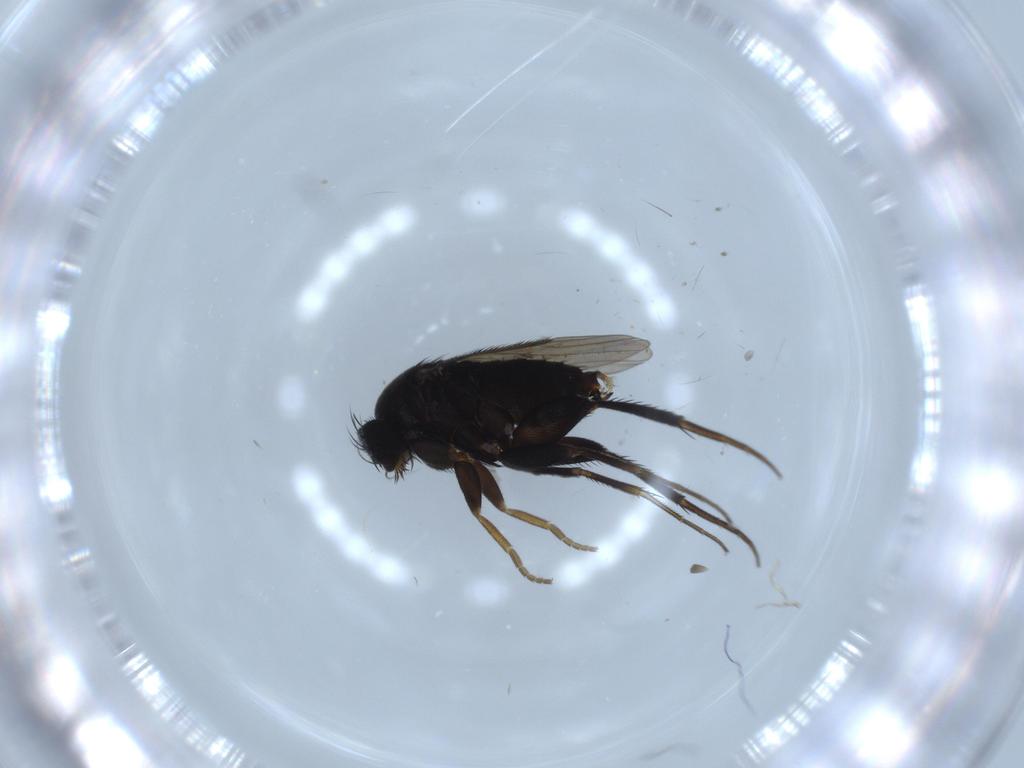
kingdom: Animalia
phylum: Arthropoda
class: Insecta
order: Diptera
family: Phoridae
